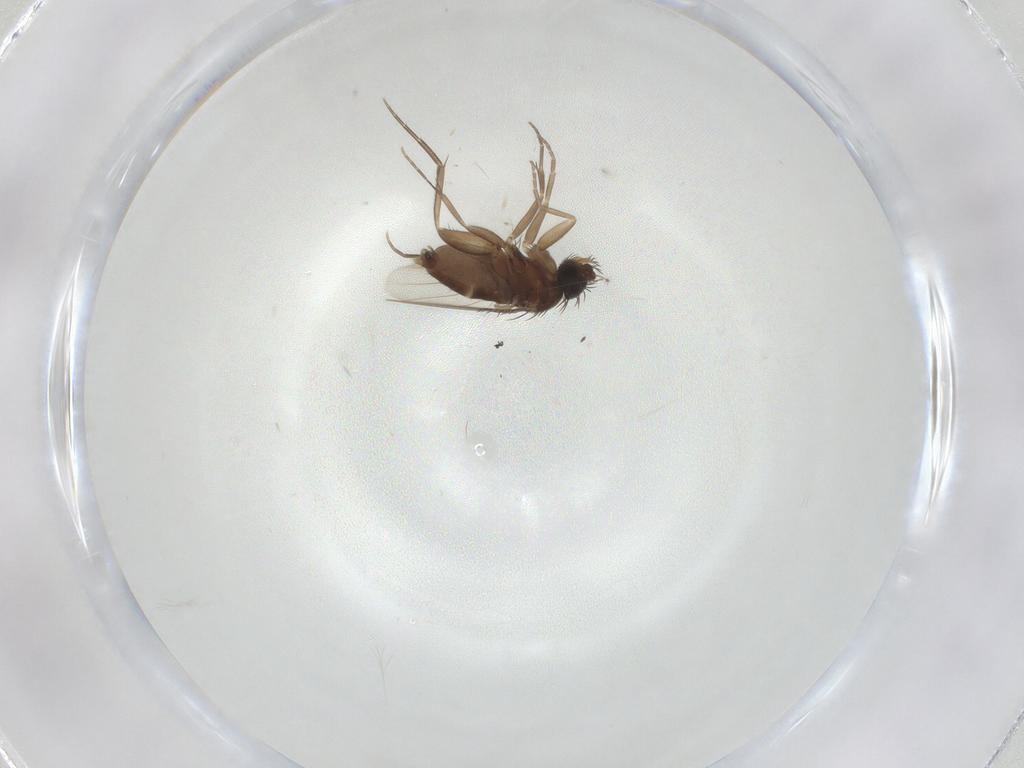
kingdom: Animalia
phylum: Arthropoda
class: Insecta
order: Diptera
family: Phoridae
